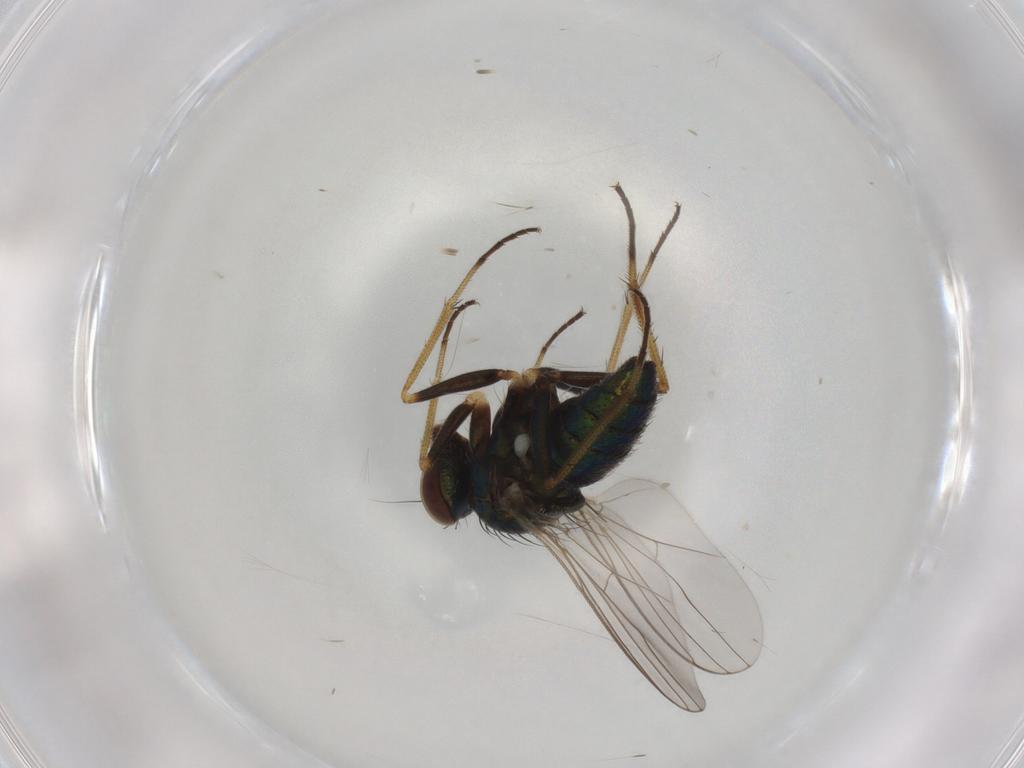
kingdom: Animalia
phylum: Arthropoda
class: Insecta
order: Diptera
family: Dolichopodidae
